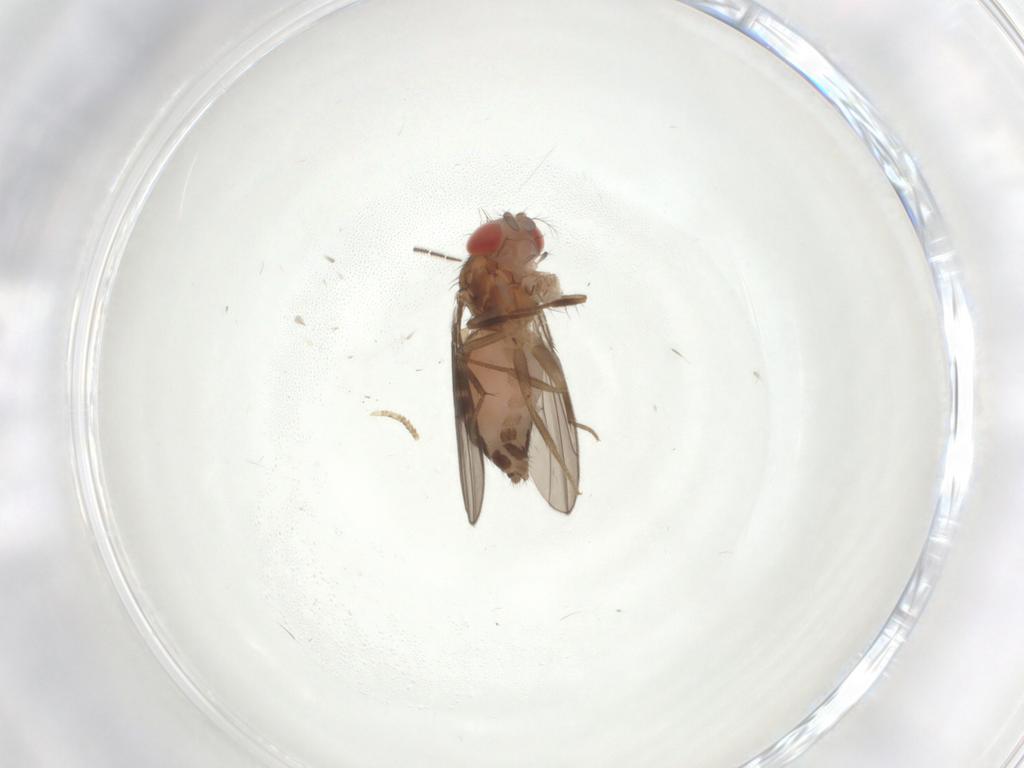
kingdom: Animalia
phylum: Arthropoda
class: Insecta
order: Diptera
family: Drosophilidae
